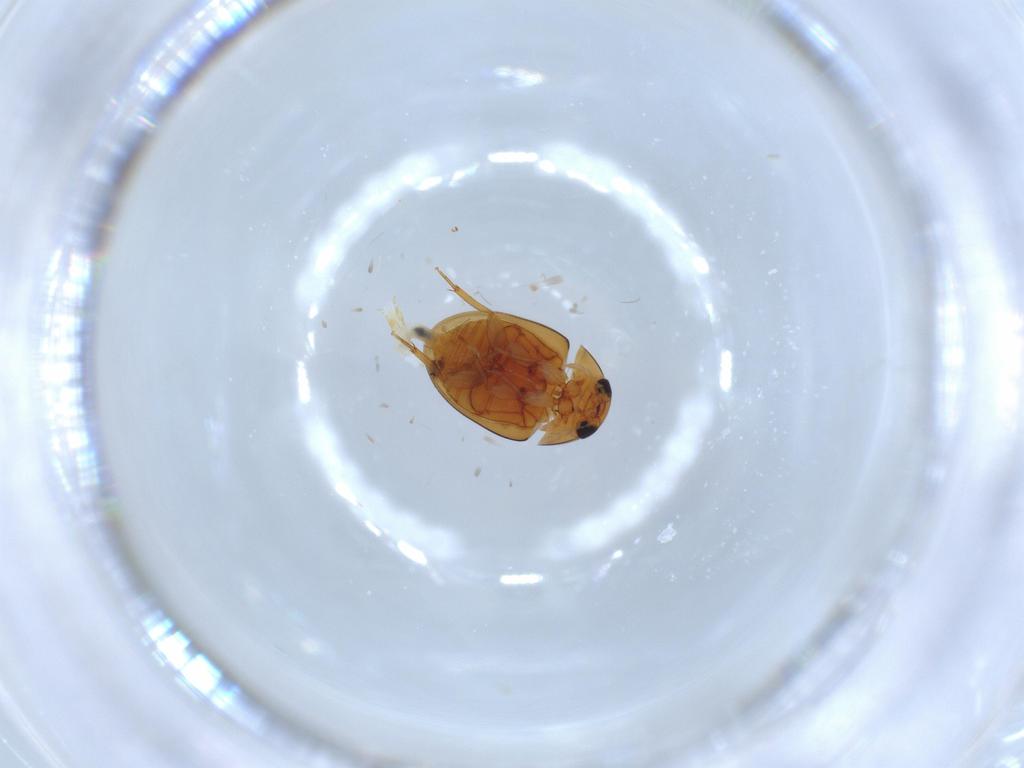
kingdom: Animalia
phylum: Arthropoda
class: Insecta
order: Coleoptera
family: Phalacridae
